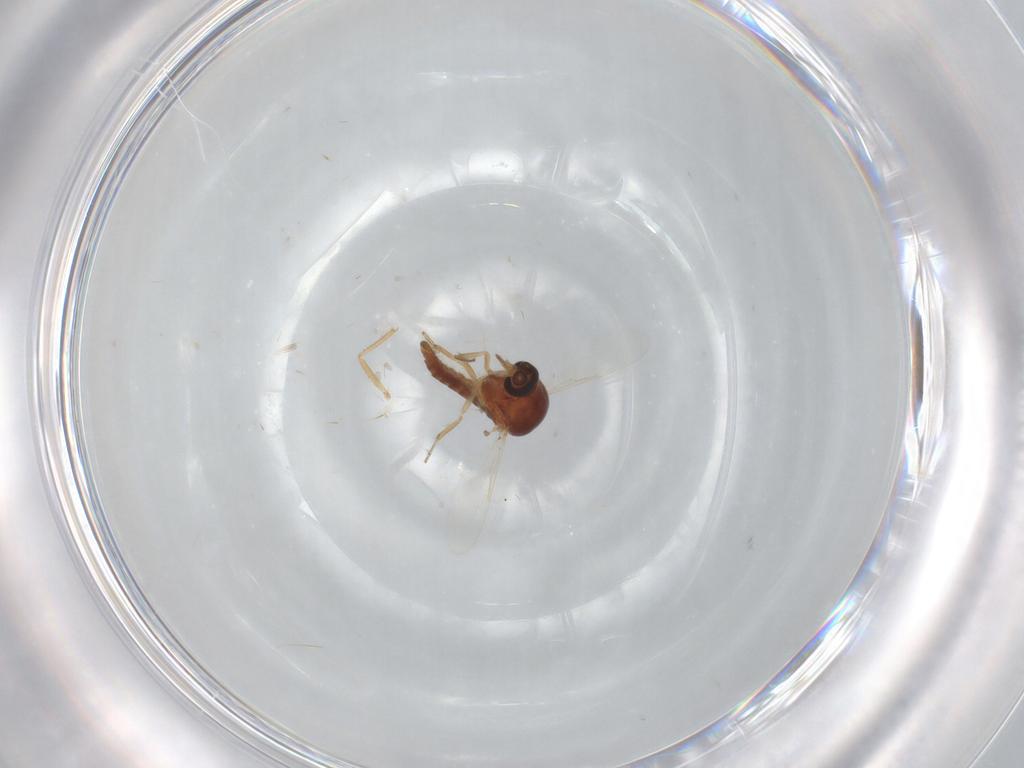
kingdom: Animalia
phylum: Arthropoda
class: Insecta
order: Diptera
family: Ceratopogonidae
